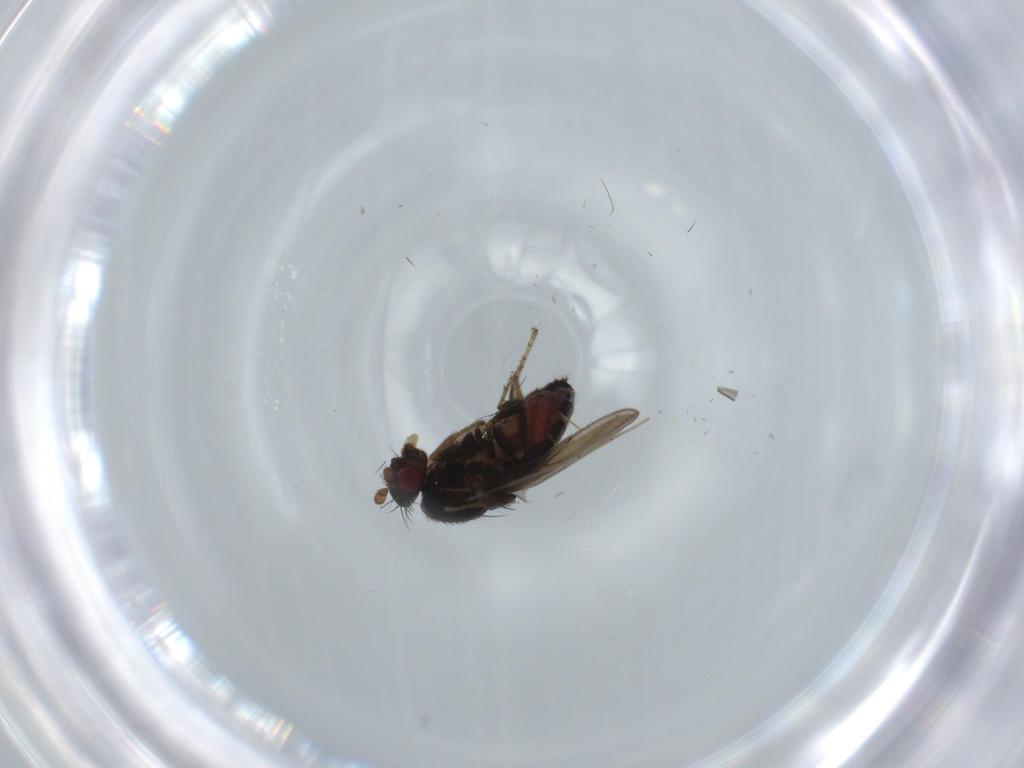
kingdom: Animalia
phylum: Arthropoda
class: Insecta
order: Diptera
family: Sphaeroceridae
